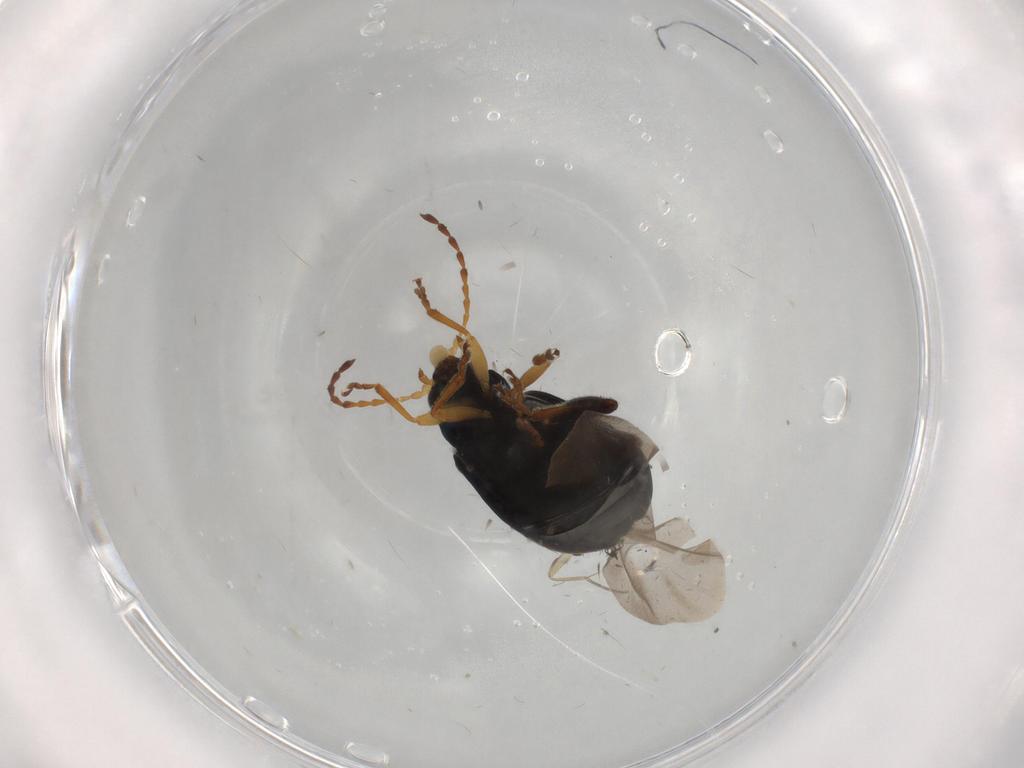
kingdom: Animalia
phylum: Arthropoda
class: Insecta
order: Coleoptera
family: Chrysomelidae
